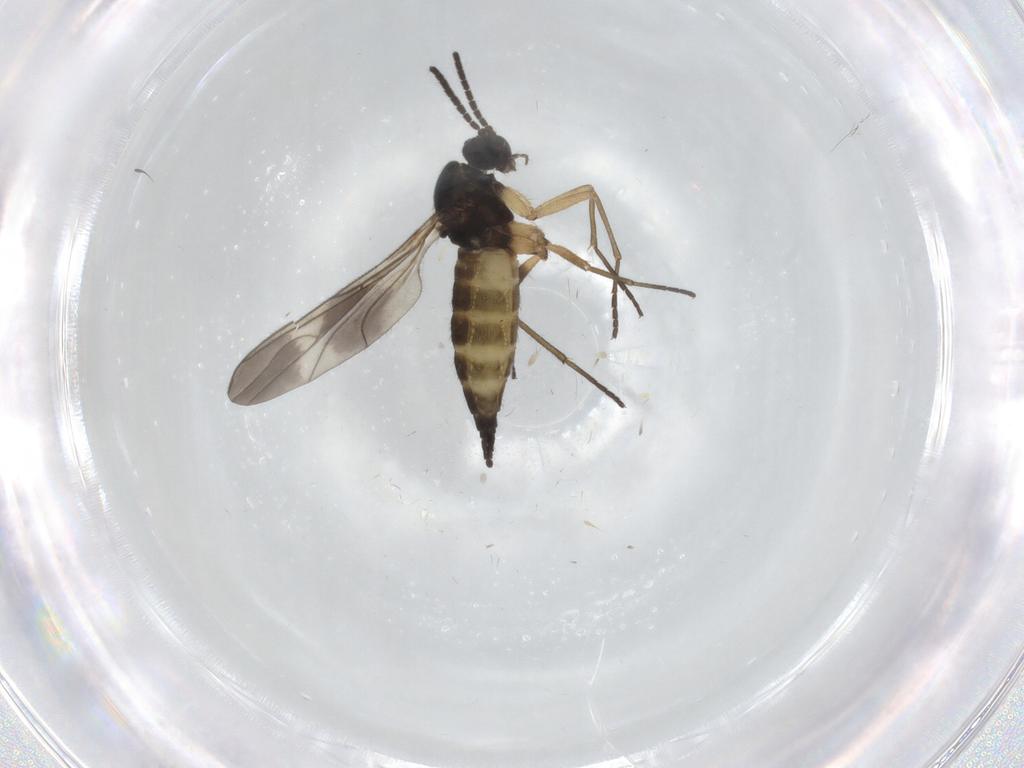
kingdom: Animalia
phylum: Arthropoda
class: Insecta
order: Diptera
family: Sciaridae
